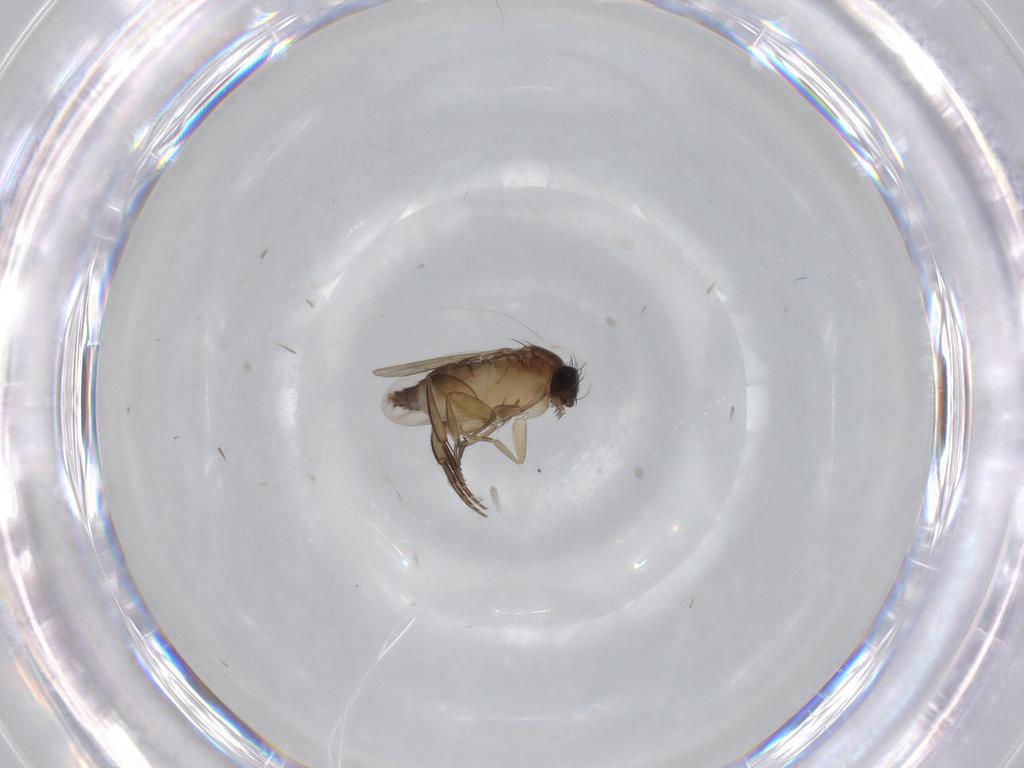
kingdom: Animalia
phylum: Arthropoda
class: Insecta
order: Diptera
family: Phoridae
